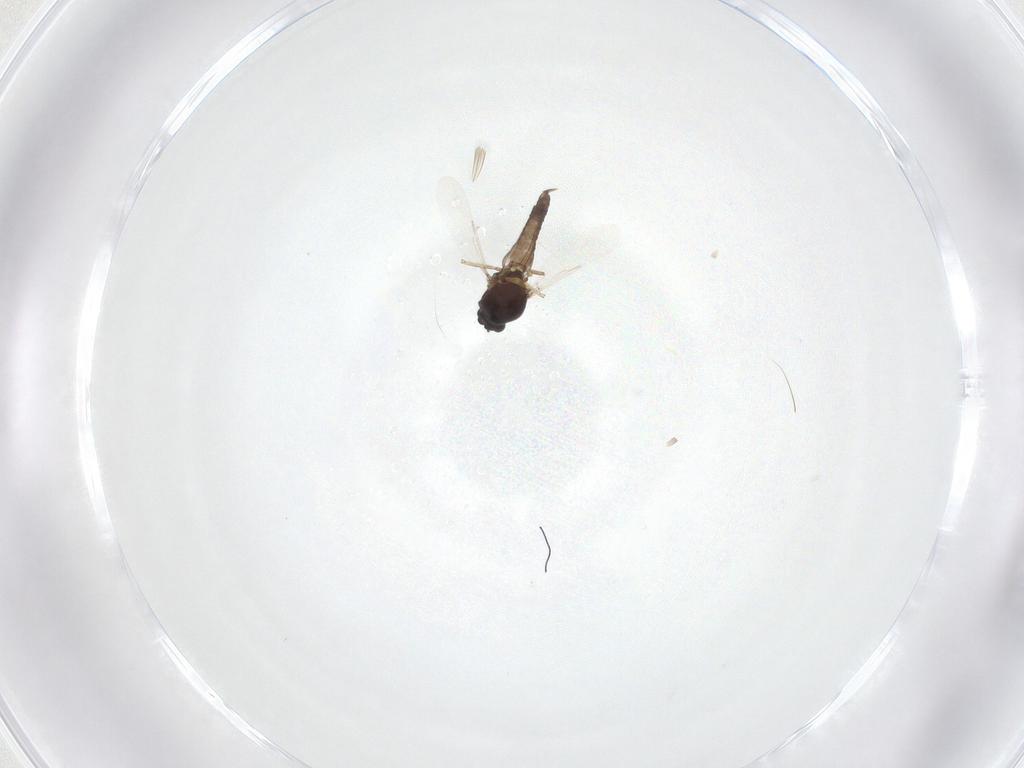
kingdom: Animalia
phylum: Arthropoda
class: Insecta
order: Diptera
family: Ceratopogonidae
